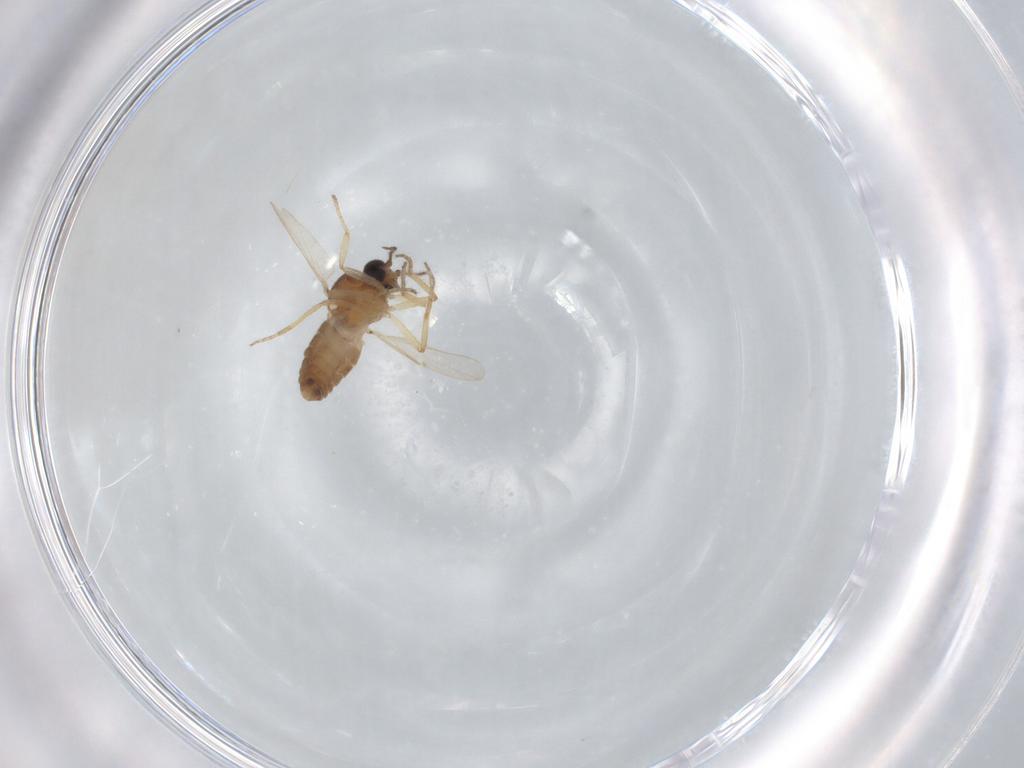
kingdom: Animalia
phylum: Arthropoda
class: Insecta
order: Diptera
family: Ceratopogonidae
